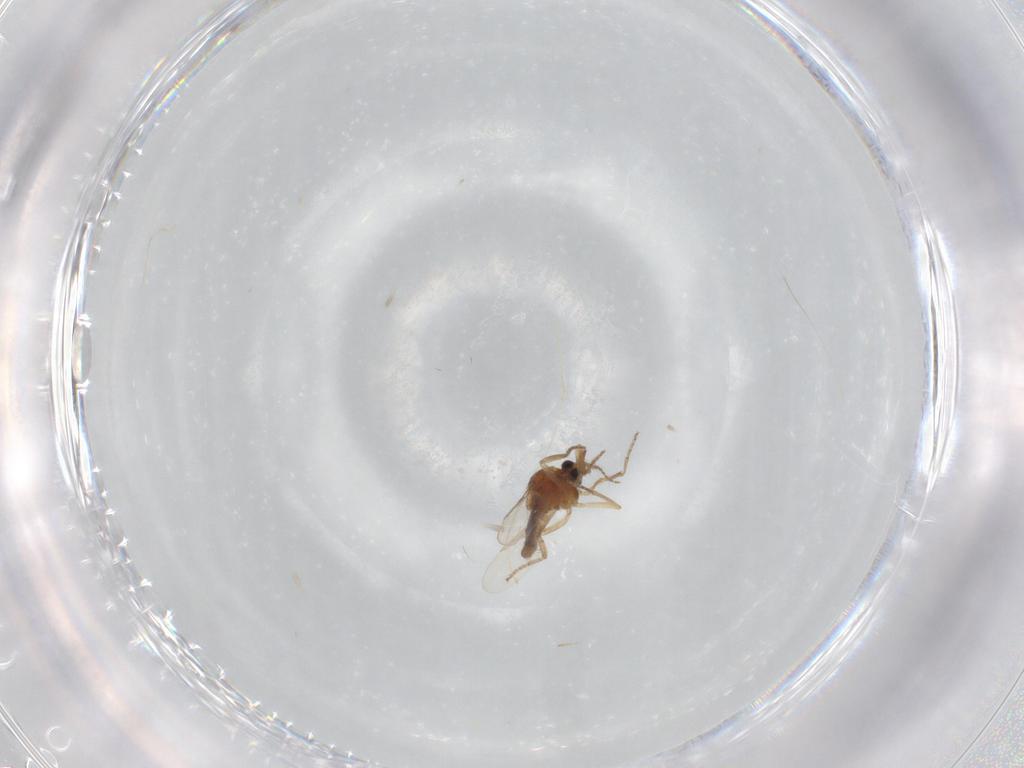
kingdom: Animalia
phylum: Arthropoda
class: Insecta
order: Diptera
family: Ceratopogonidae
